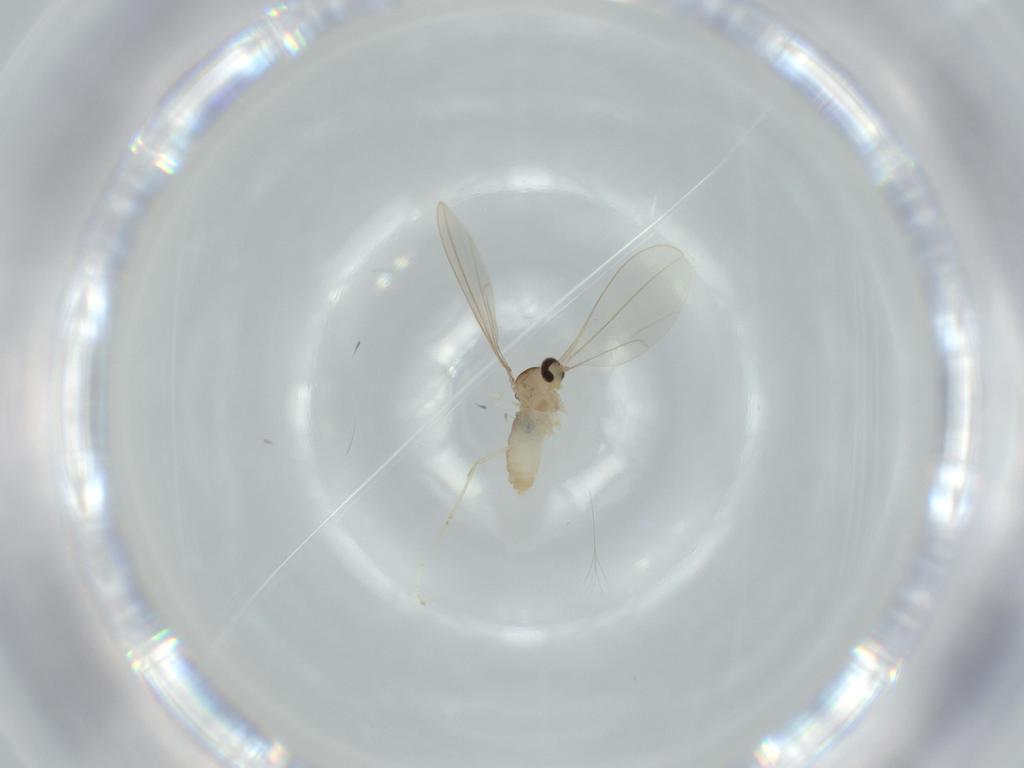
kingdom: Animalia
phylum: Arthropoda
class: Insecta
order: Diptera
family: Cecidomyiidae
